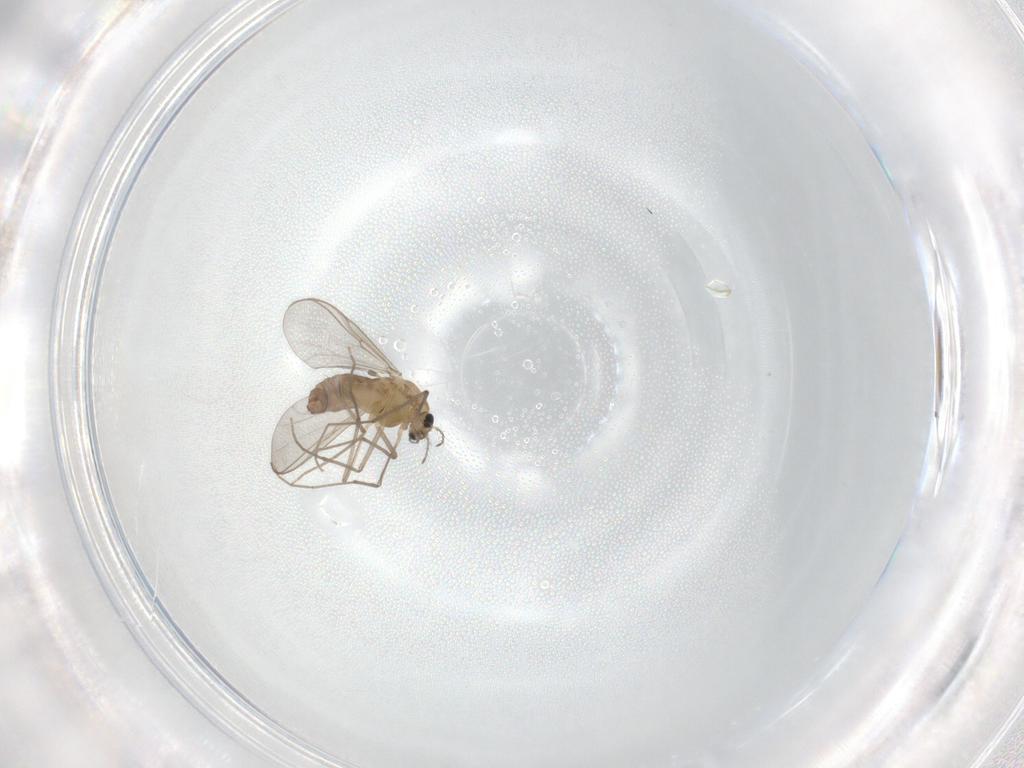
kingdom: Animalia
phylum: Arthropoda
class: Insecta
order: Diptera
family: Chironomidae
